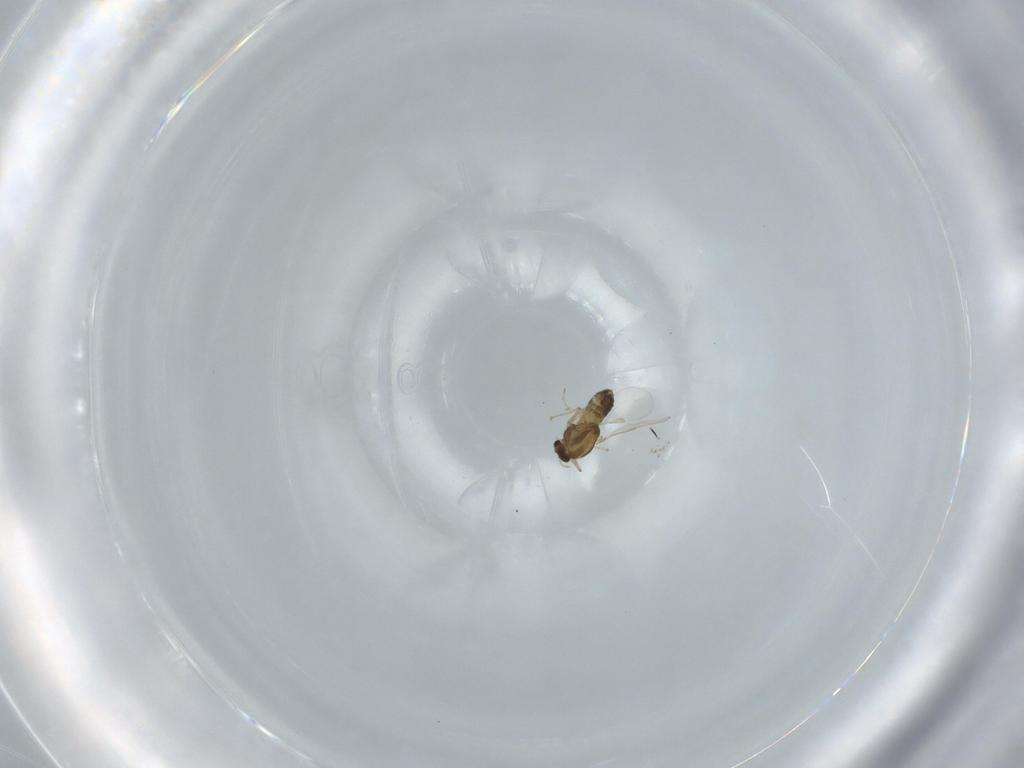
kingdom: Animalia
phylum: Arthropoda
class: Insecta
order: Diptera
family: Chironomidae
